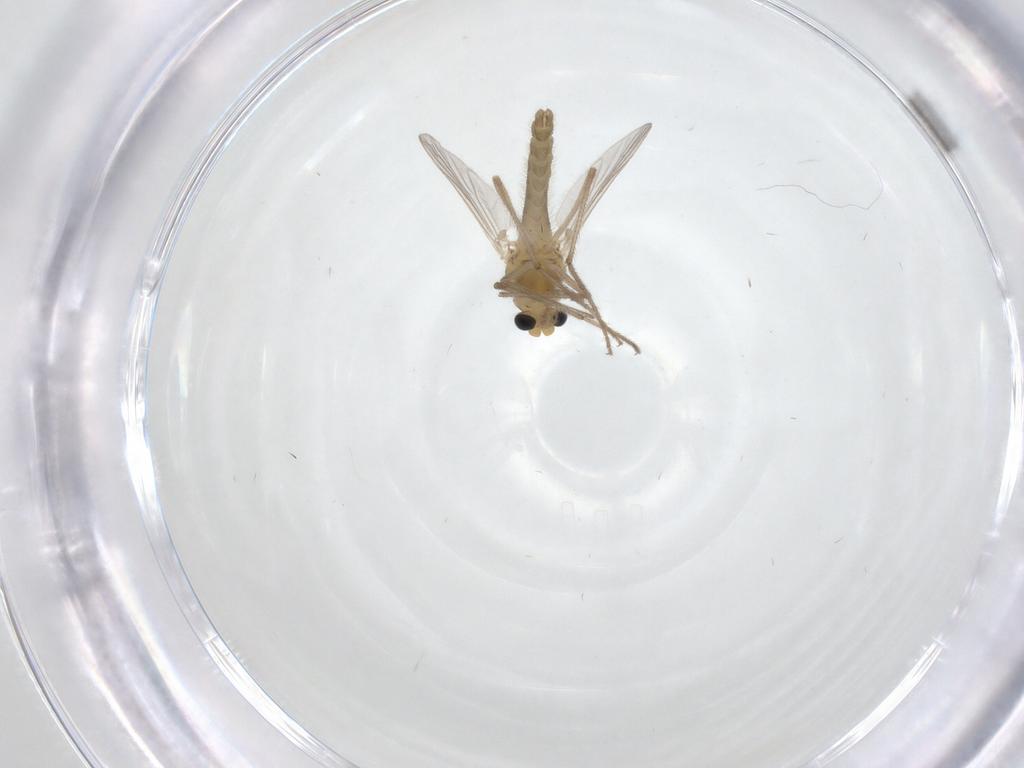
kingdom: Animalia
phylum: Arthropoda
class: Insecta
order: Diptera
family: Chironomidae
